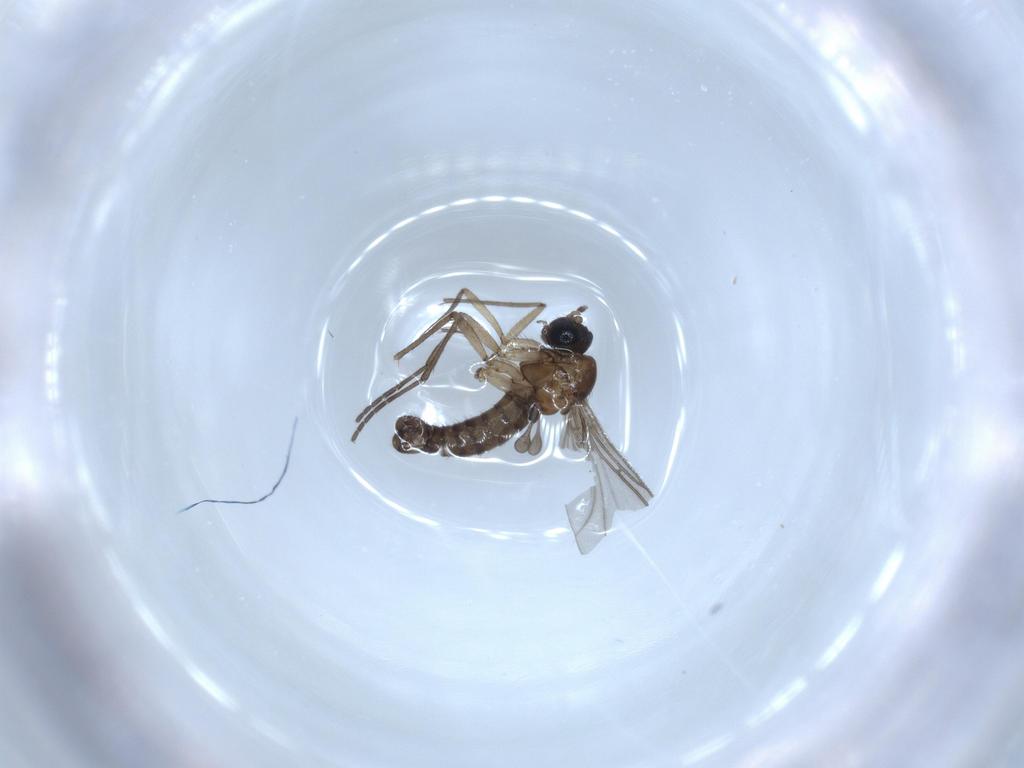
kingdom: Animalia
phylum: Arthropoda
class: Insecta
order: Diptera
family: Sciaridae
